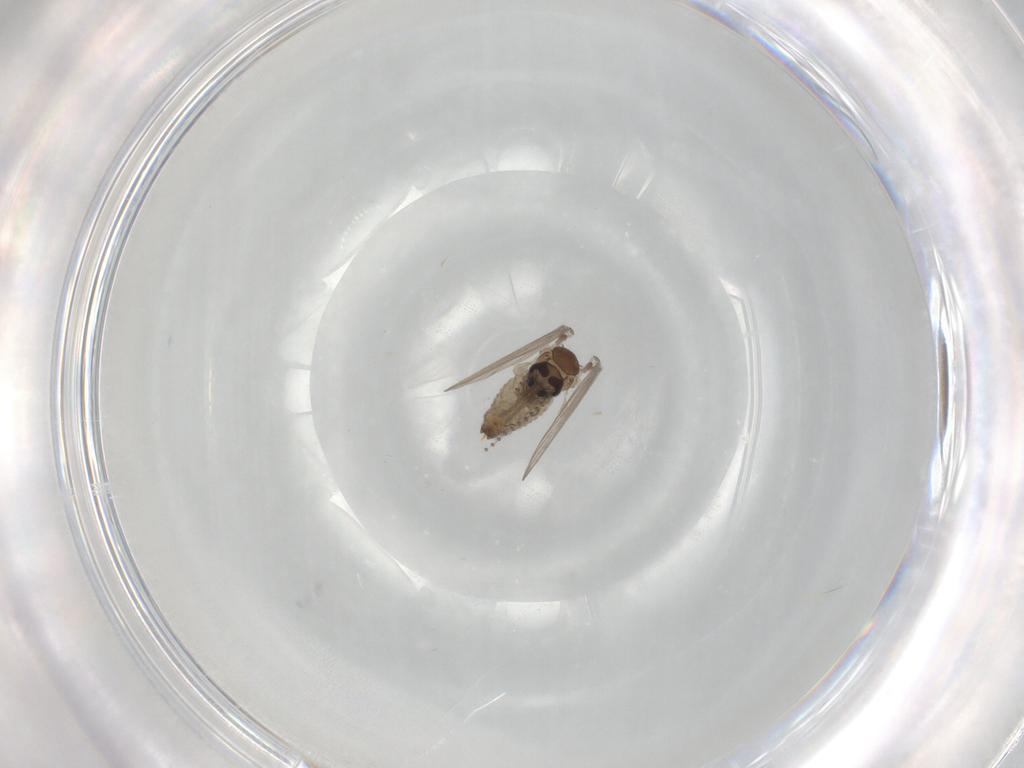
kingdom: Animalia
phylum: Arthropoda
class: Insecta
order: Diptera
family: Psychodidae
